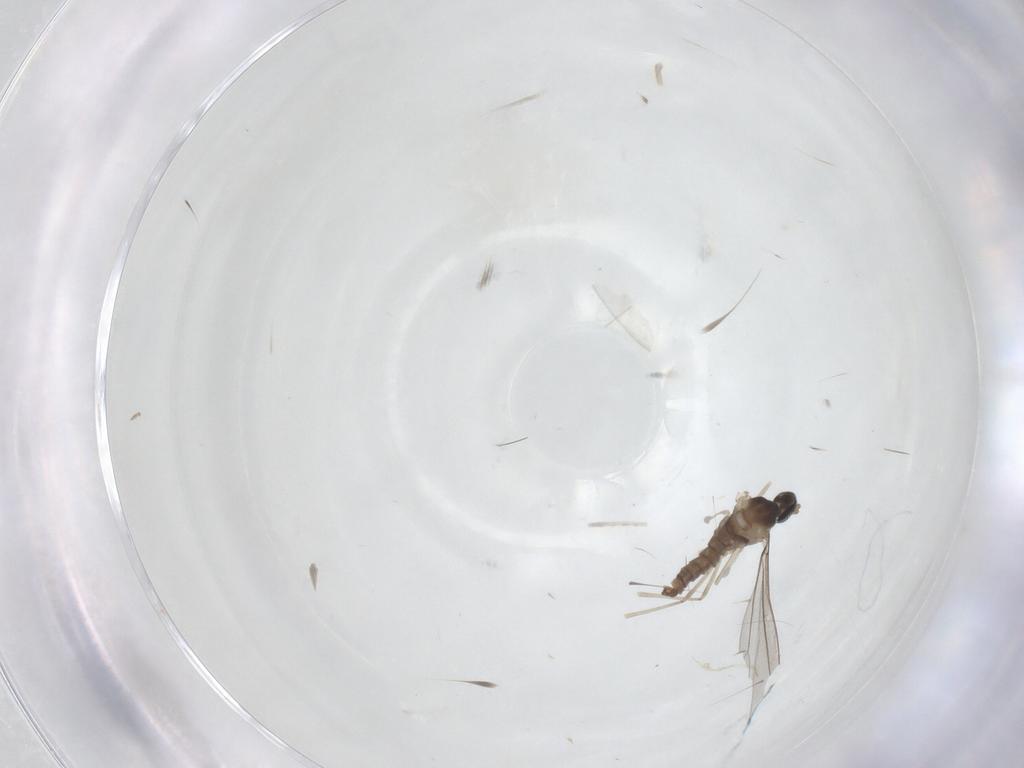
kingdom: Animalia
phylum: Arthropoda
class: Insecta
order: Diptera
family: Cecidomyiidae
